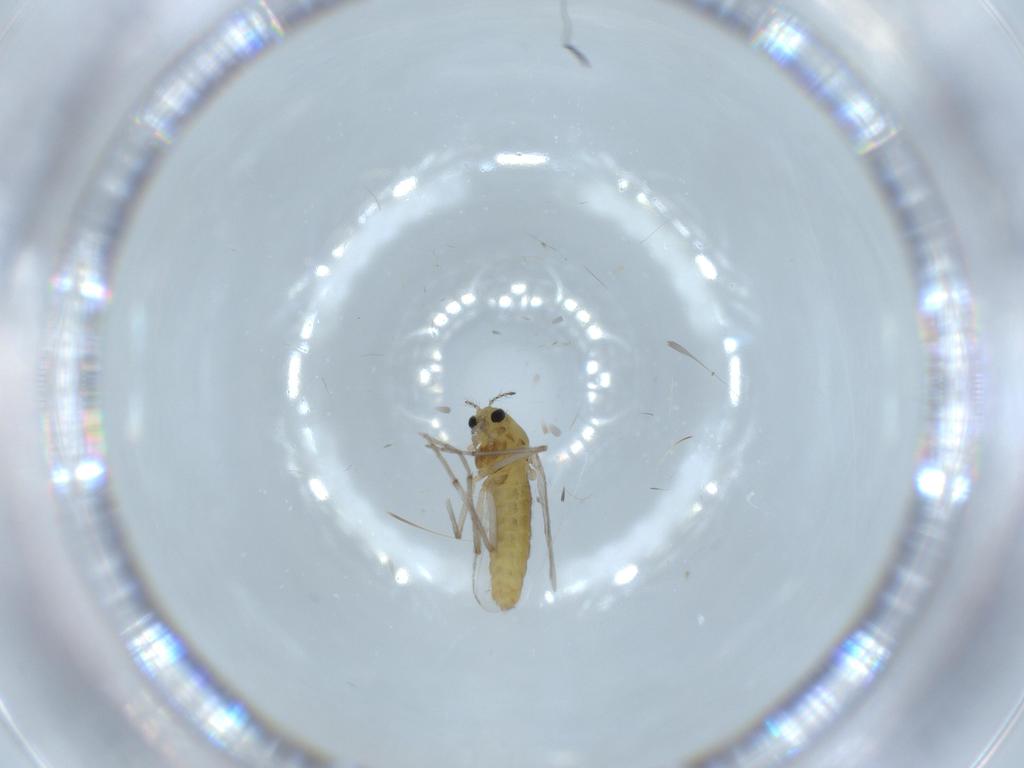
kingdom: Animalia
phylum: Arthropoda
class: Insecta
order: Diptera
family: Chironomidae
